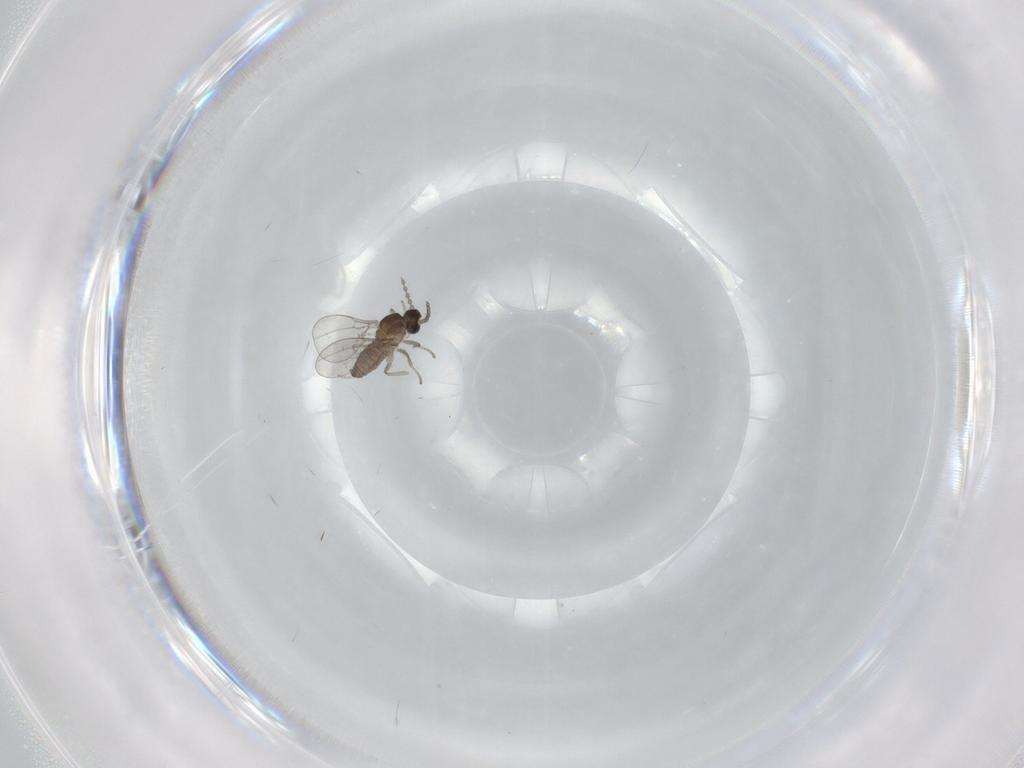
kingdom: Animalia
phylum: Arthropoda
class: Insecta
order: Diptera
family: Cecidomyiidae
